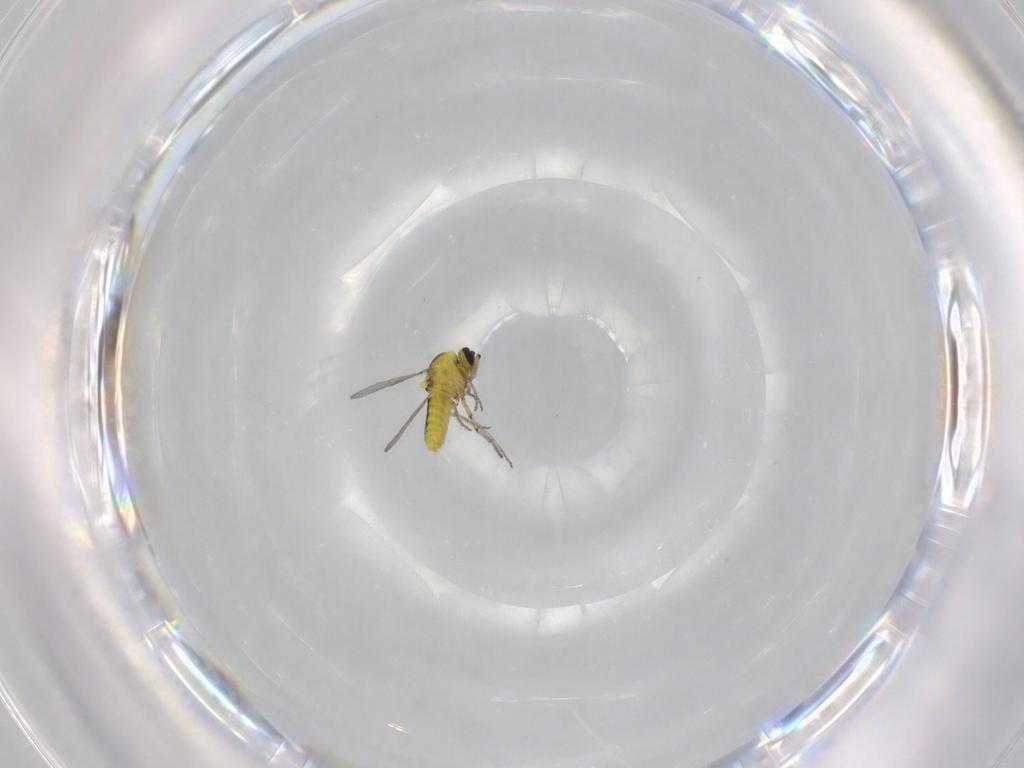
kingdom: Animalia
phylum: Arthropoda
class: Insecta
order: Diptera
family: Ceratopogonidae
